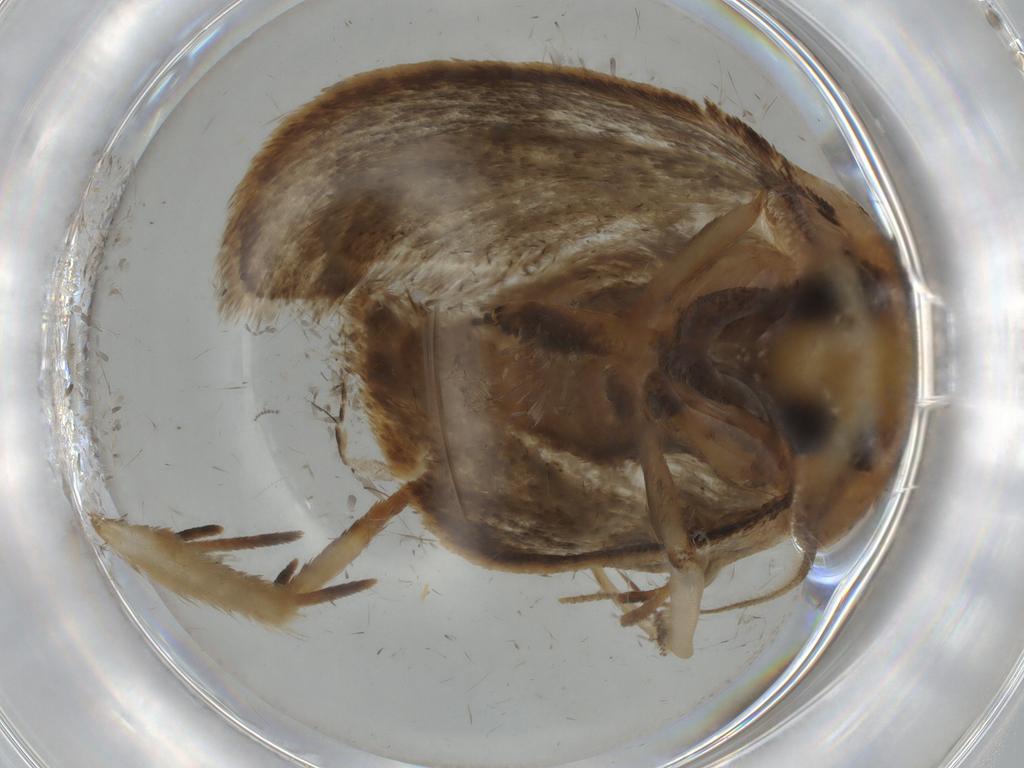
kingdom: Animalia
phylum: Arthropoda
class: Insecta
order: Lepidoptera
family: Oecophoridae
